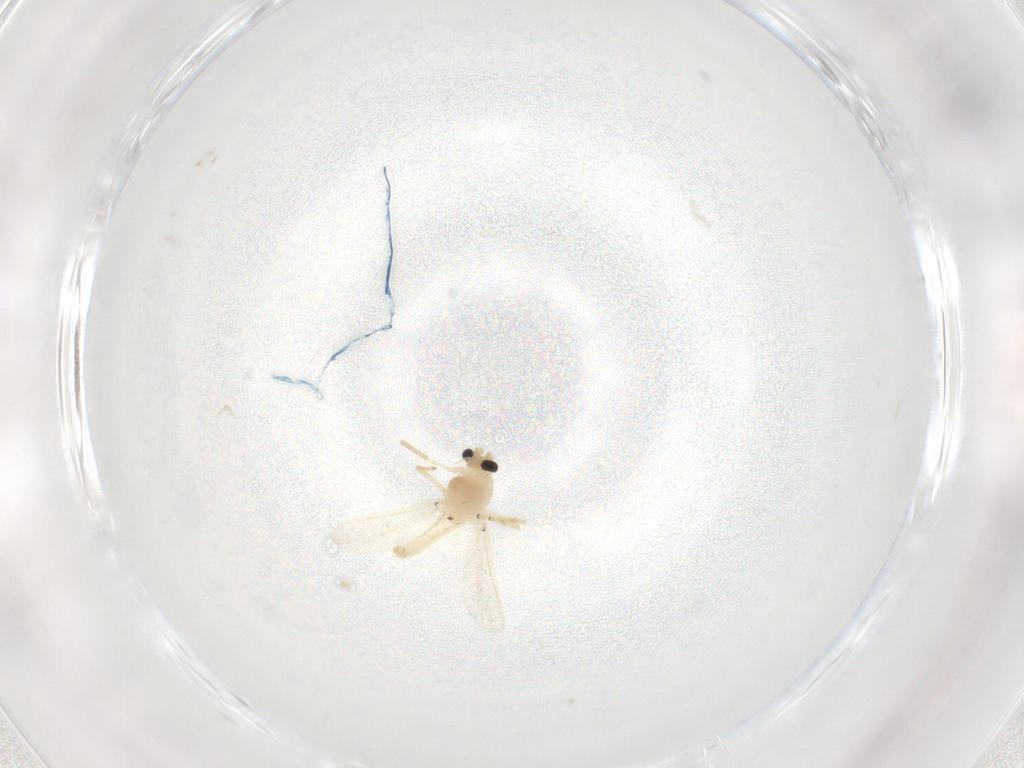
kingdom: Animalia
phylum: Arthropoda
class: Insecta
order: Diptera
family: Chironomidae
